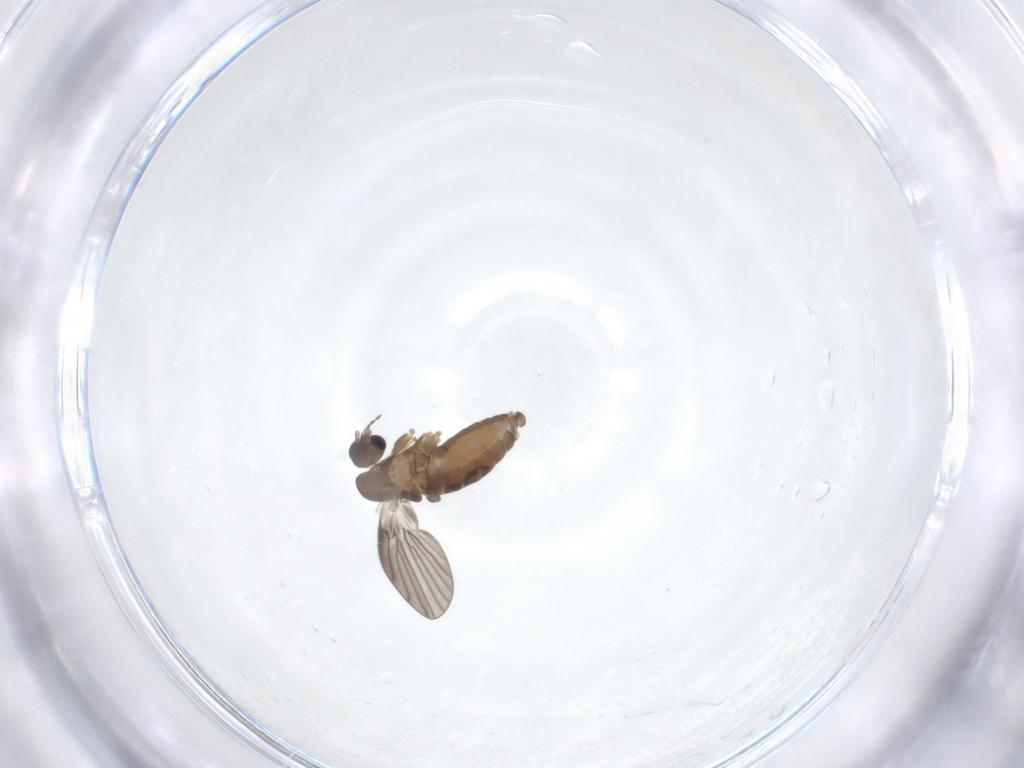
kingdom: Animalia
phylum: Arthropoda
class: Insecta
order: Diptera
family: Psychodidae
